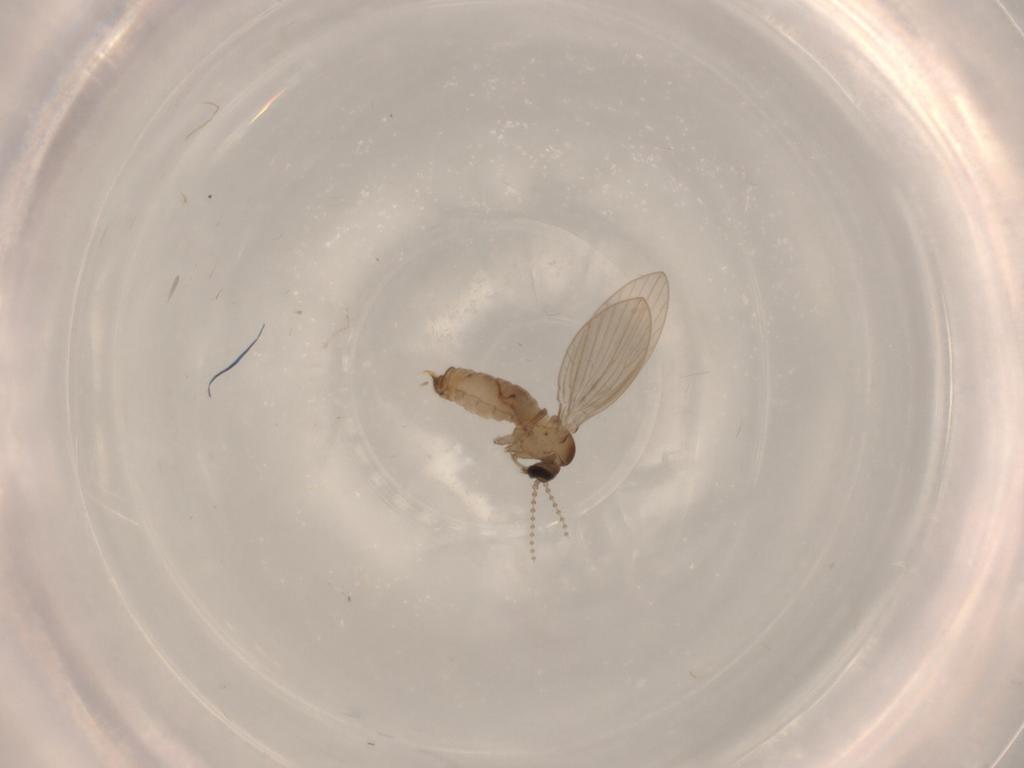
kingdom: Animalia
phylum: Arthropoda
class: Insecta
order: Diptera
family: Psychodidae
